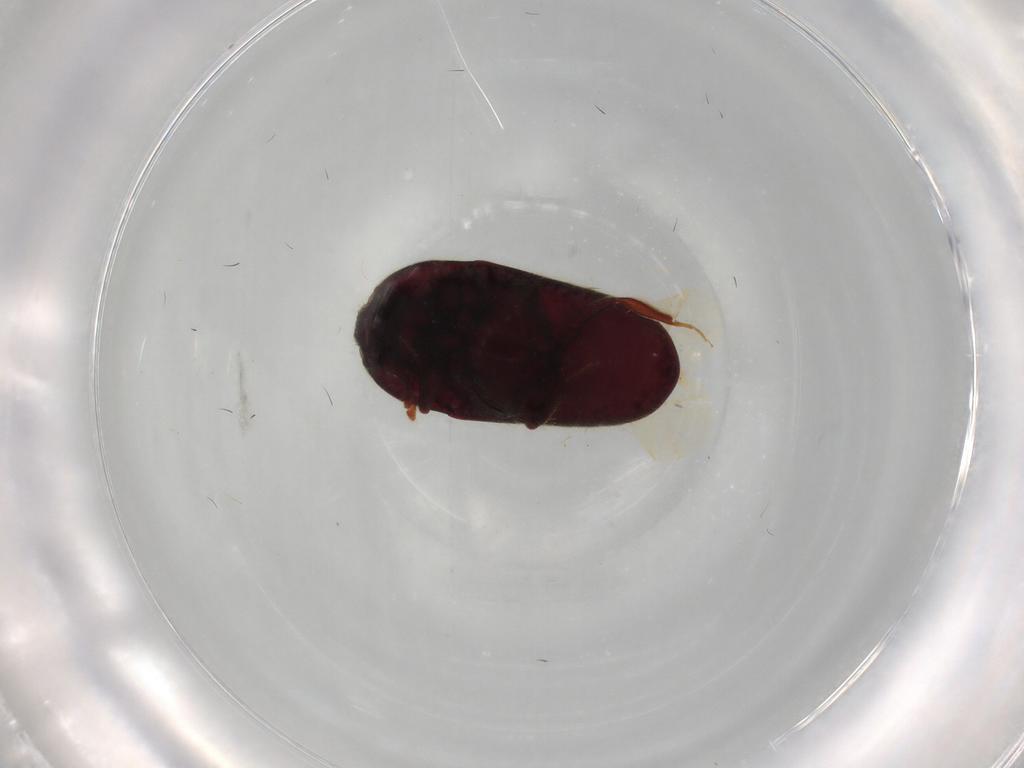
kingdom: Animalia
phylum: Arthropoda
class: Insecta
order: Coleoptera
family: Throscidae
